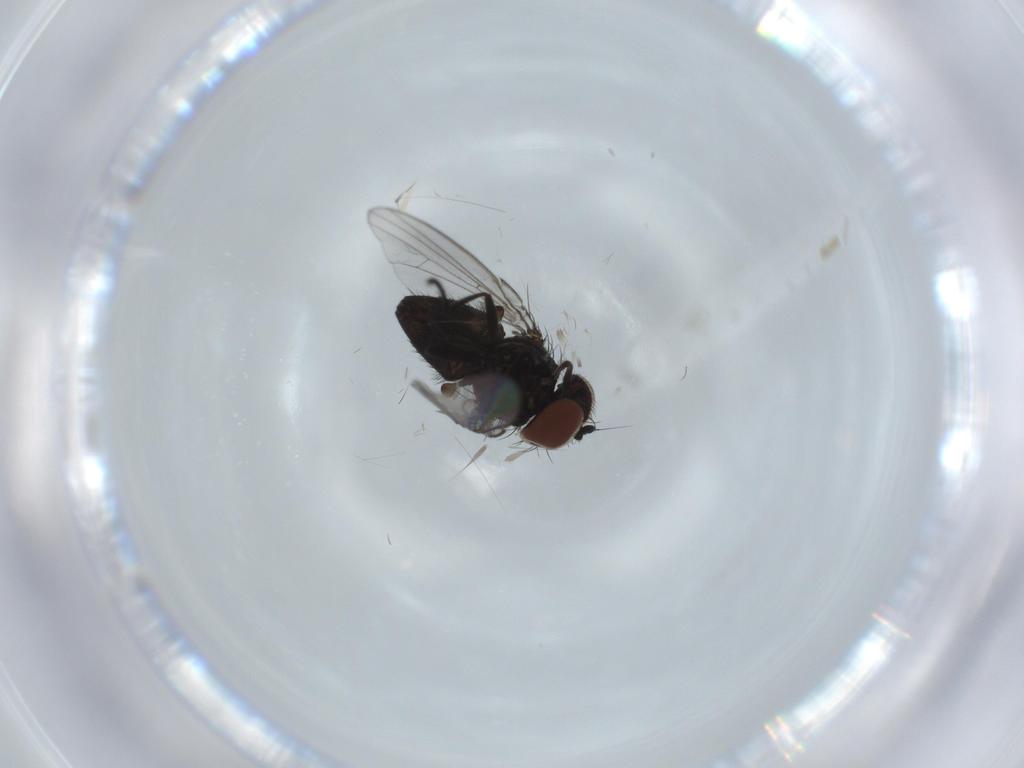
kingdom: Animalia
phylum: Arthropoda
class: Insecta
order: Diptera
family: Milichiidae
